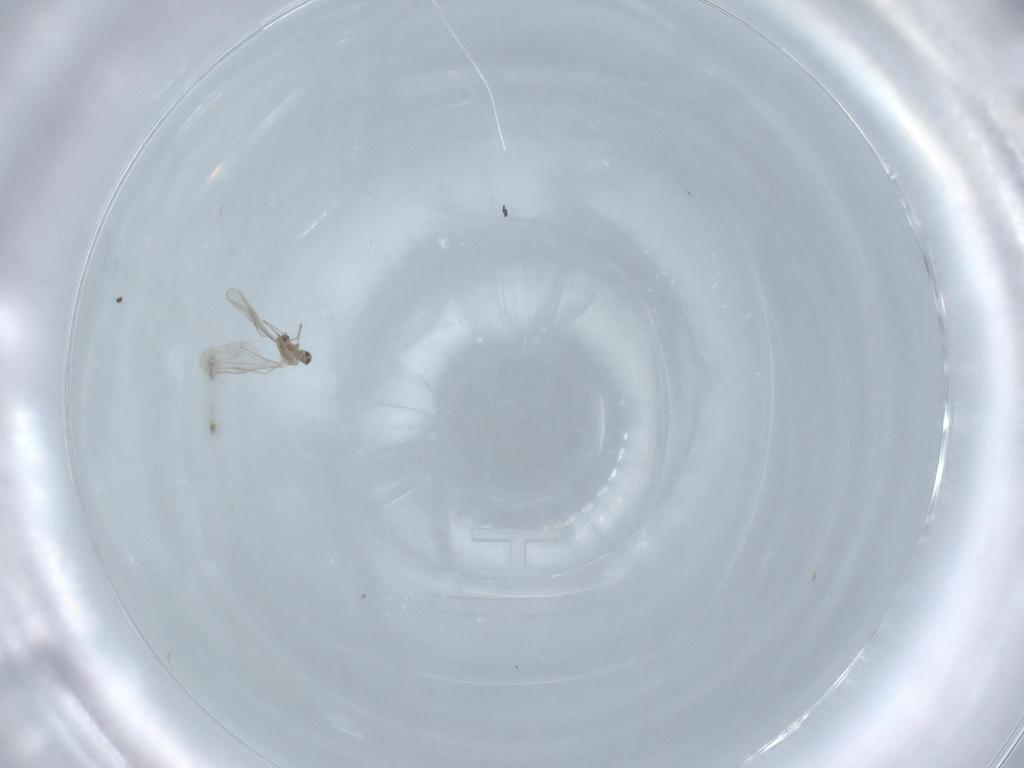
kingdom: Animalia
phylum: Arthropoda
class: Insecta
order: Diptera
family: Cecidomyiidae
